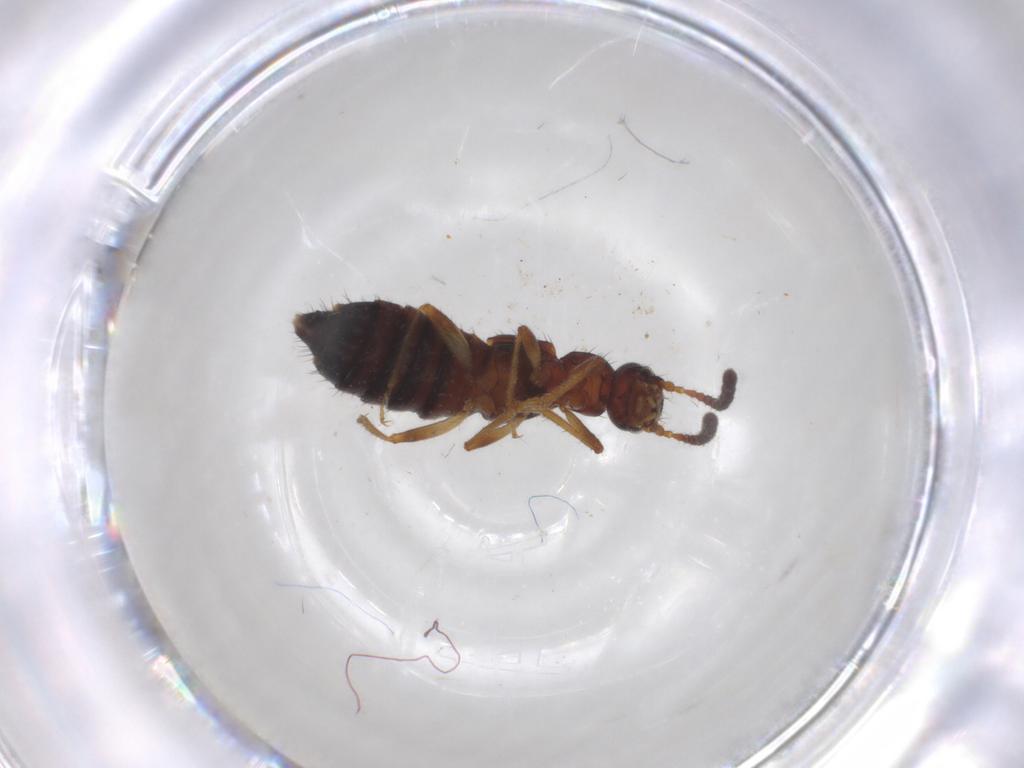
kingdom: Animalia
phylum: Arthropoda
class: Insecta
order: Coleoptera
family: Staphylinidae
